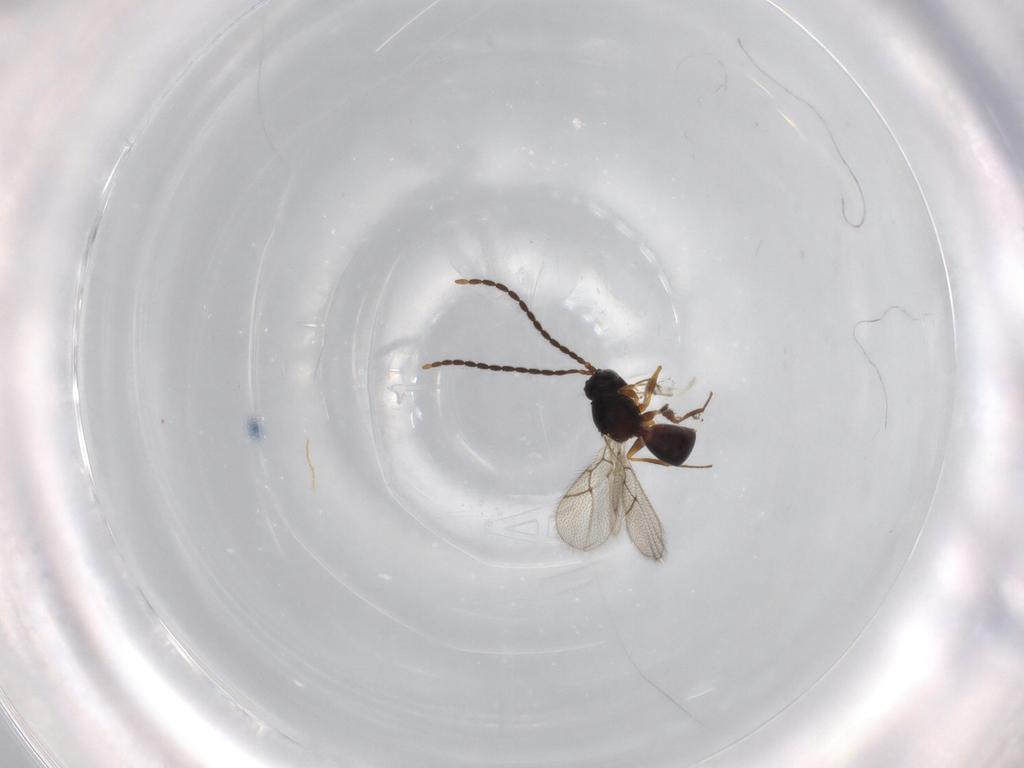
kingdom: Animalia
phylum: Arthropoda
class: Insecta
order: Hymenoptera
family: Figitidae
